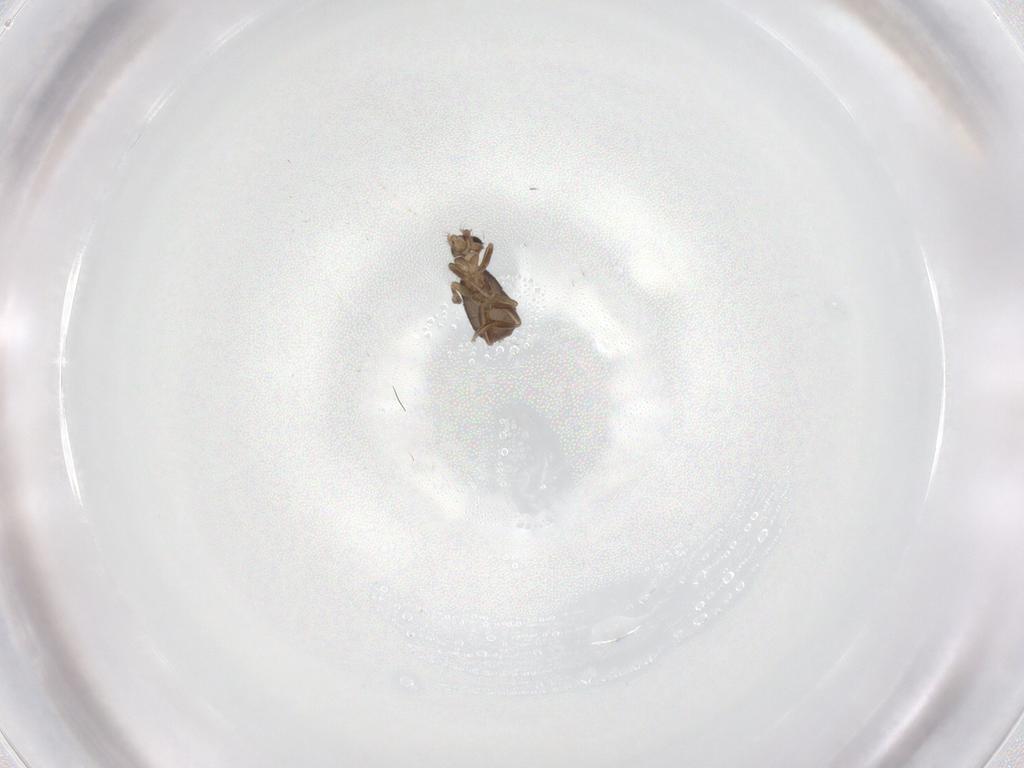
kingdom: Animalia
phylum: Arthropoda
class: Insecta
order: Diptera
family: Phoridae
